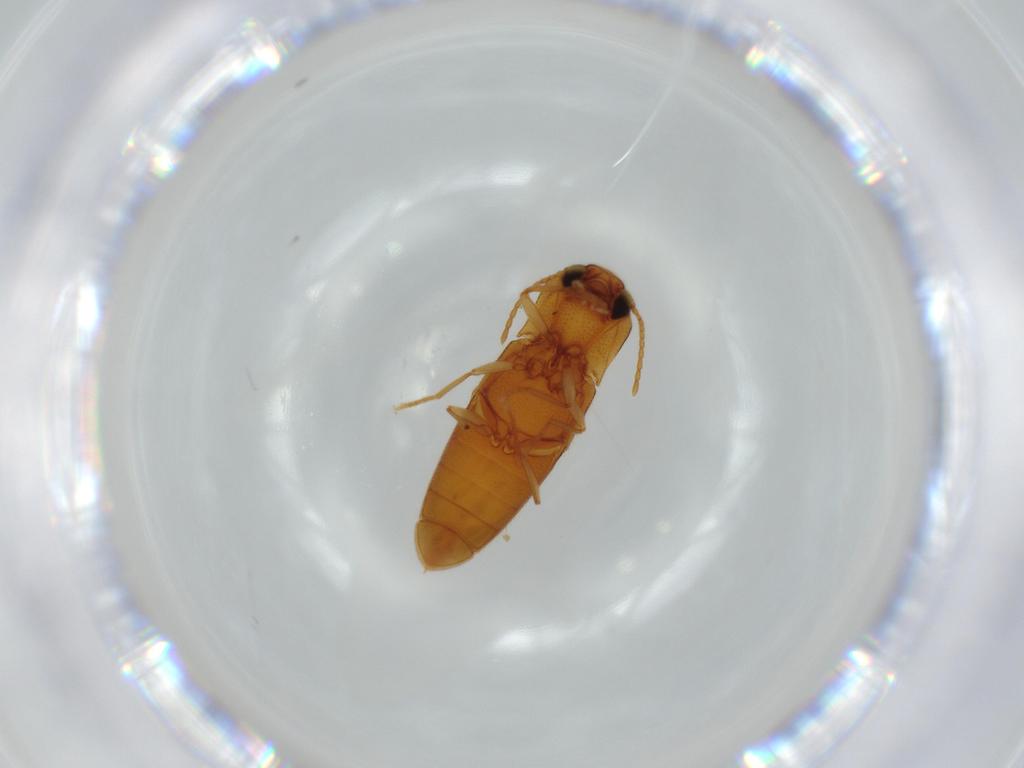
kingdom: Animalia
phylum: Arthropoda
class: Insecta
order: Coleoptera
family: Elateridae
